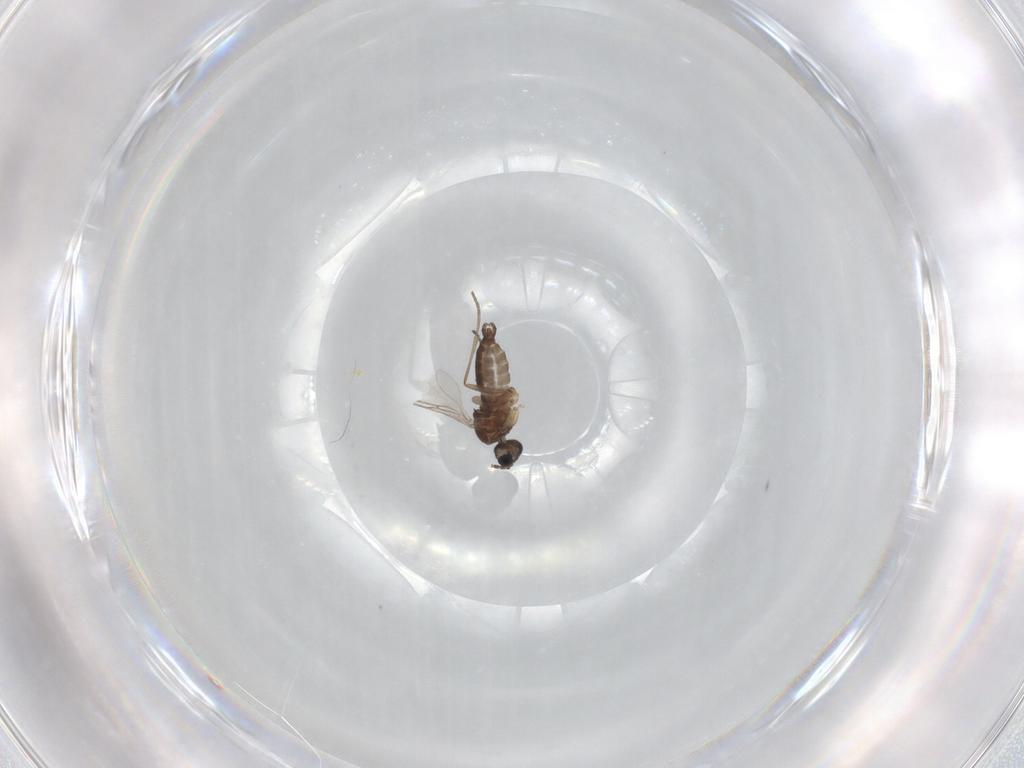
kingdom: Animalia
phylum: Arthropoda
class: Insecta
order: Diptera
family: Sciaridae
